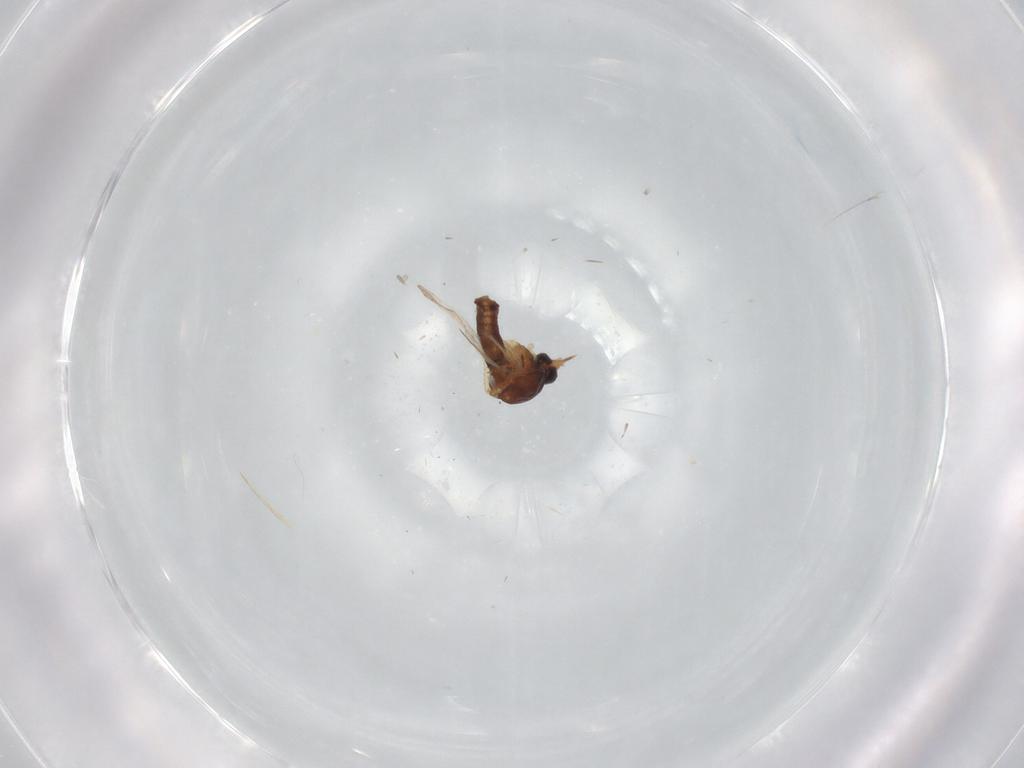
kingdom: Animalia
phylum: Arthropoda
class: Insecta
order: Diptera
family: Ceratopogonidae
